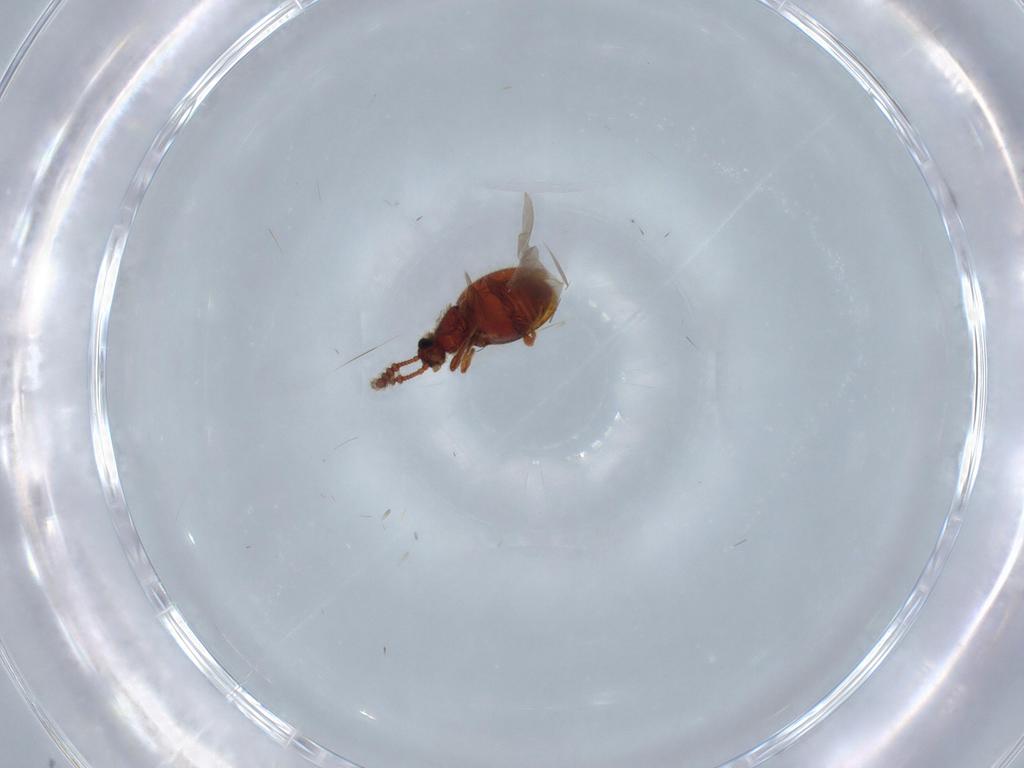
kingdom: Animalia
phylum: Arthropoda
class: Insecta
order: Coleoptera
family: Staphylinidae
